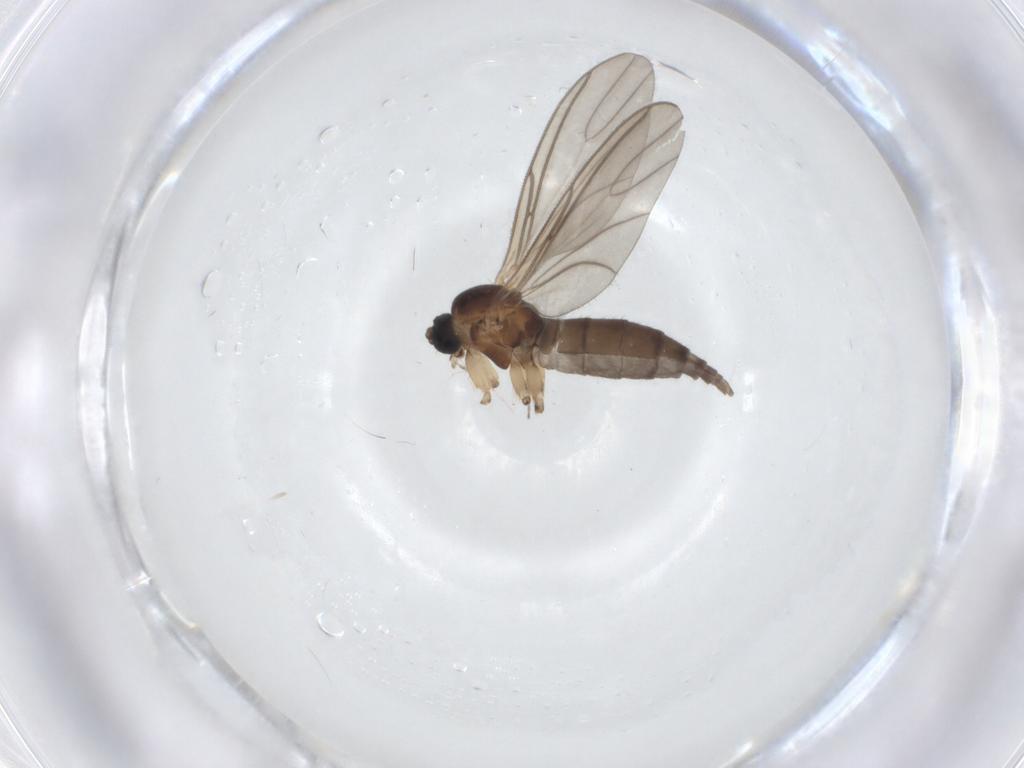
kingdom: Animalia
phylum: Arthropoda
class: Insecta
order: Diptera
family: Sciaridae
